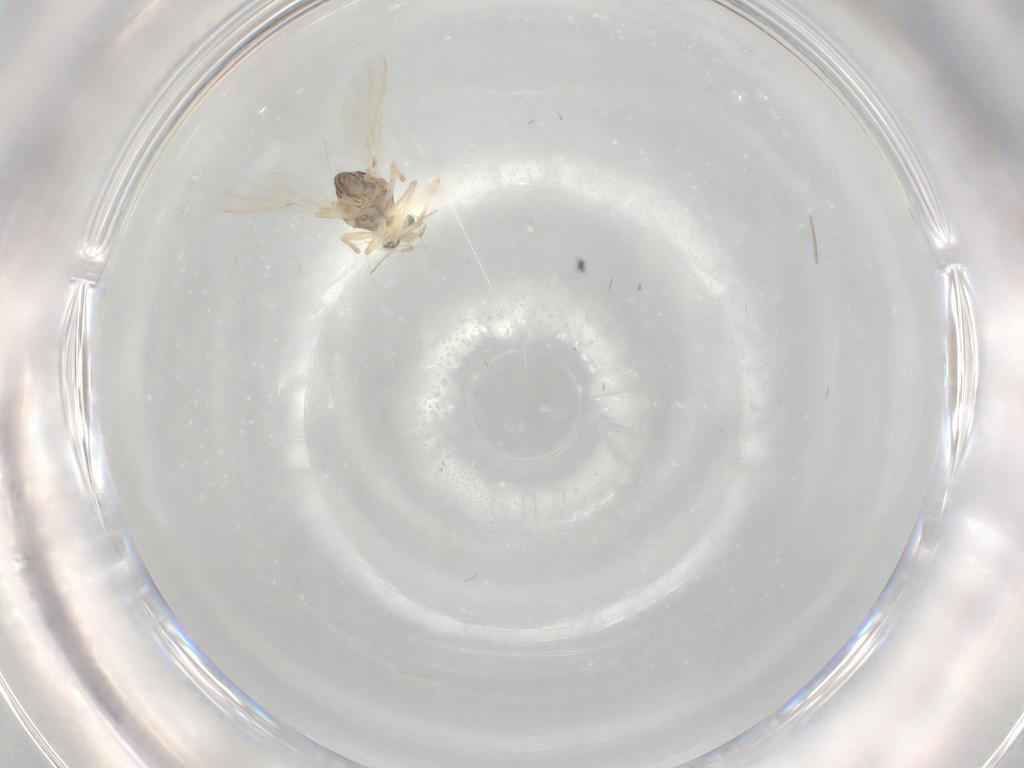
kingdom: Animalia
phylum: Arthropoda
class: Insecta
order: Diptera
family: Chironomidae
